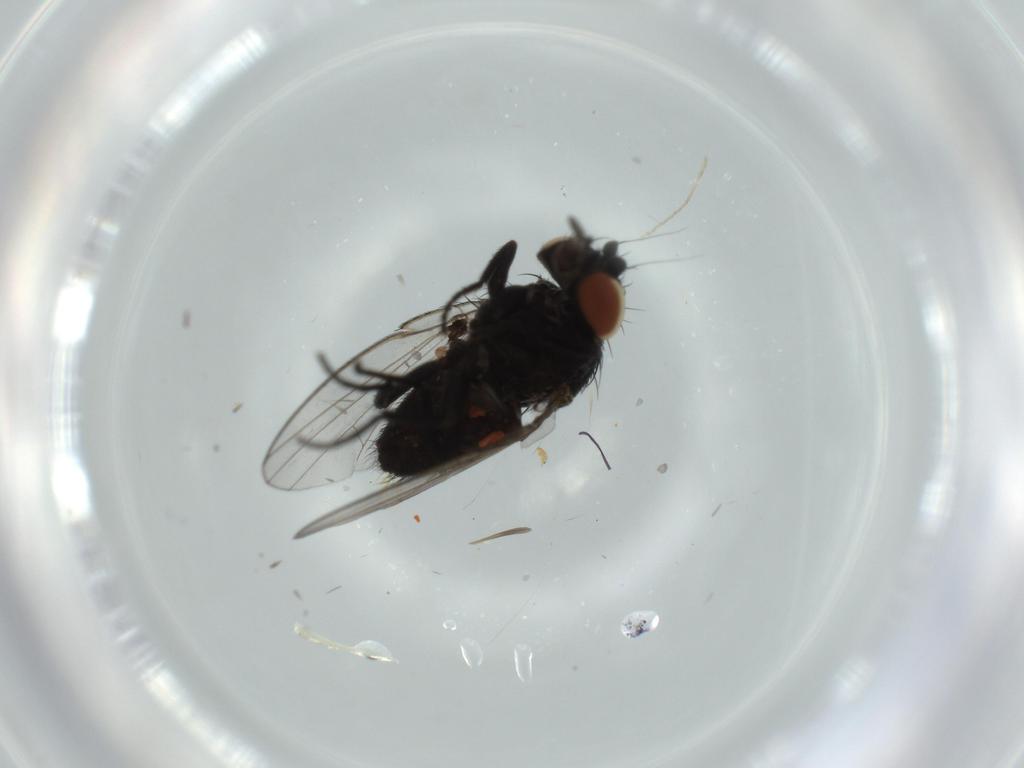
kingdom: Animalia
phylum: Arthropoda
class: Insecta
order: Diptera
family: Milichiidae
